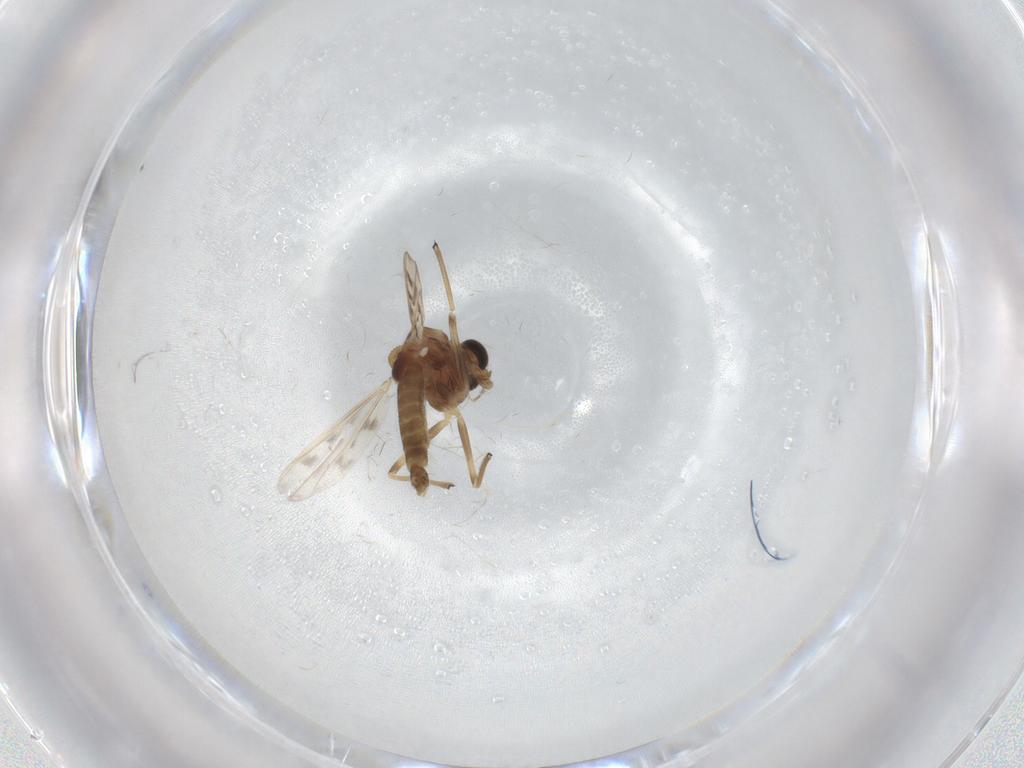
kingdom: Animalia
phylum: Arthropoda
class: Insecta
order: Diptera
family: Chironomidae
